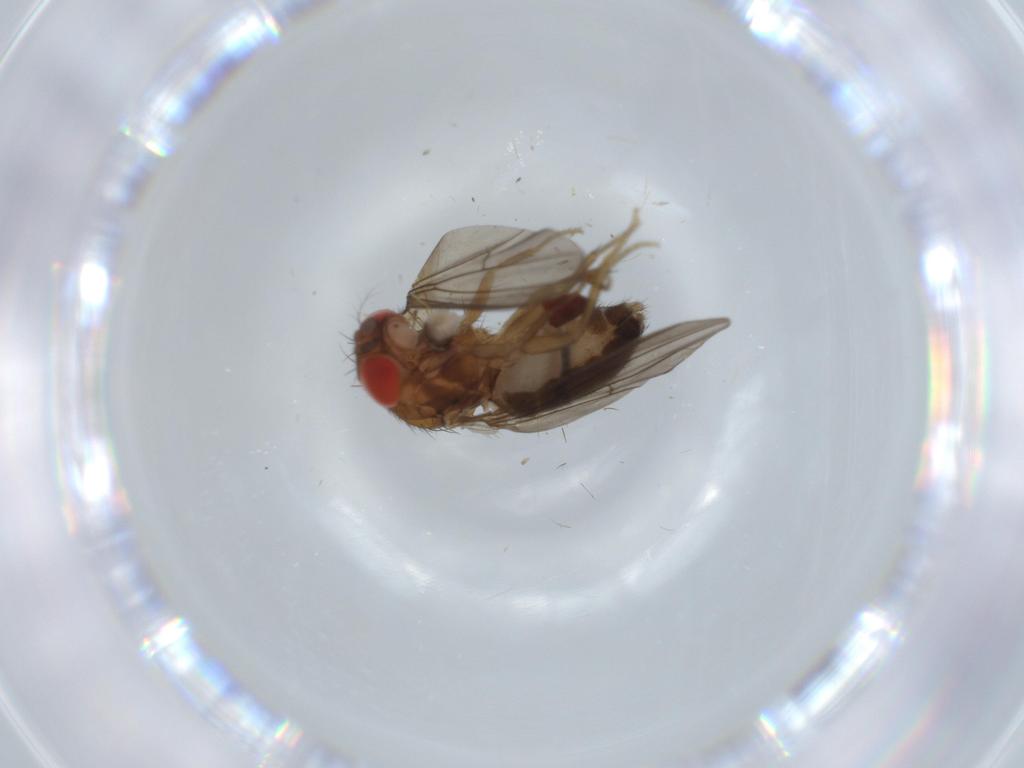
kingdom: Animalia
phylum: Arthropoda
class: Insecta
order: Diptera
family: Drosophilidae
